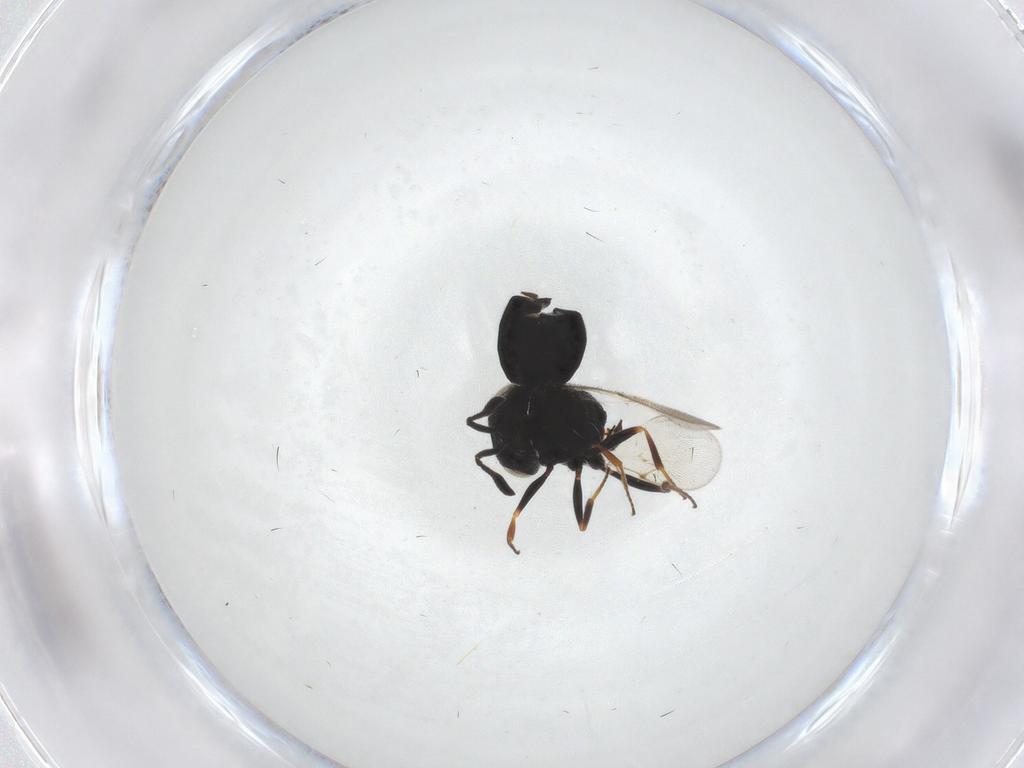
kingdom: Animalia
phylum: Arthropoda
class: Insecta
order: Hymenoptera
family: Scelionidae
